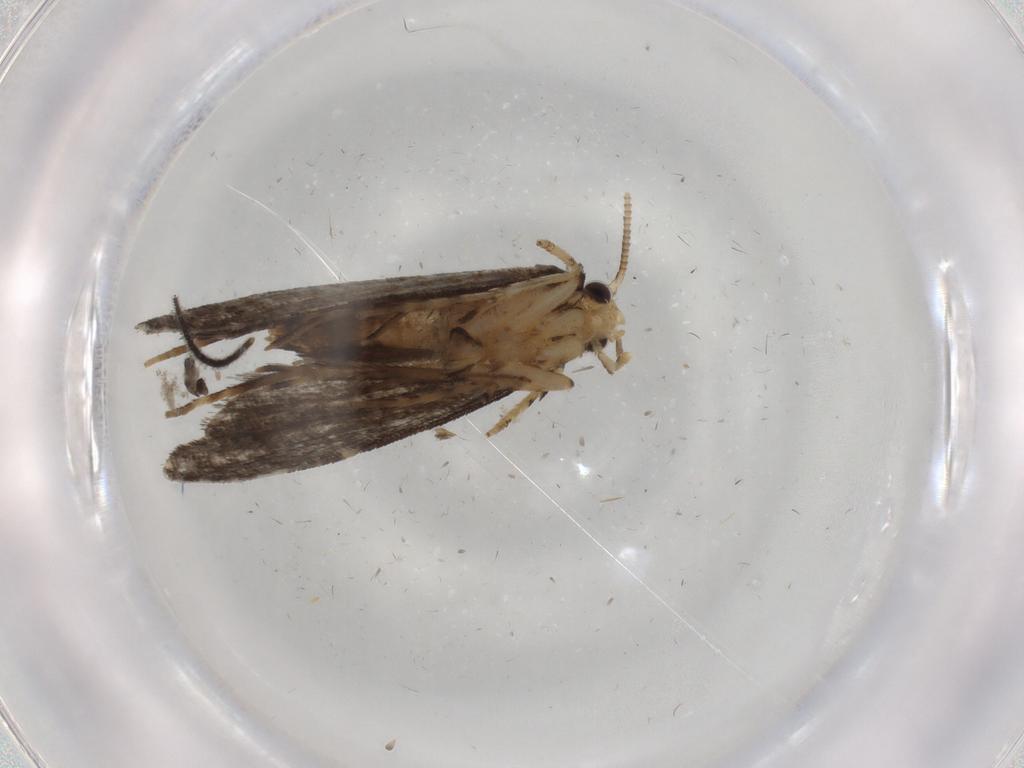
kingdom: Animalia
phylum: Arthropoda
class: Insecta
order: Lepidoptera
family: Tineidae
